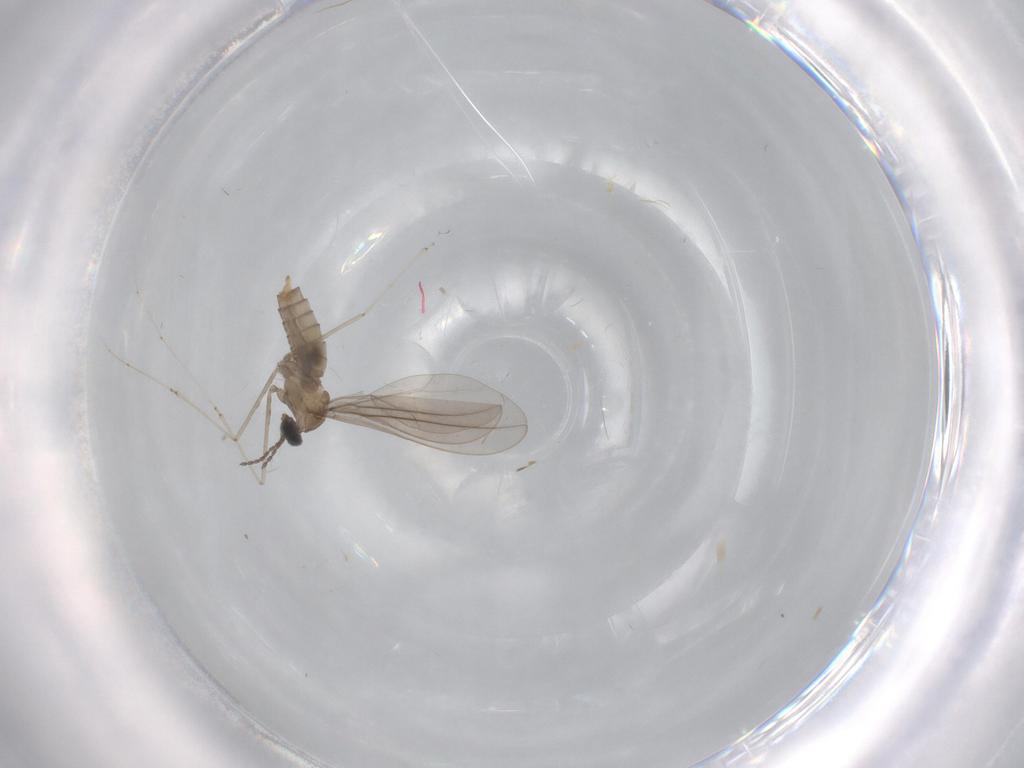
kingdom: Animalia
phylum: Arthropoda
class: Insecta
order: Diptera
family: Cecidomyiidae
